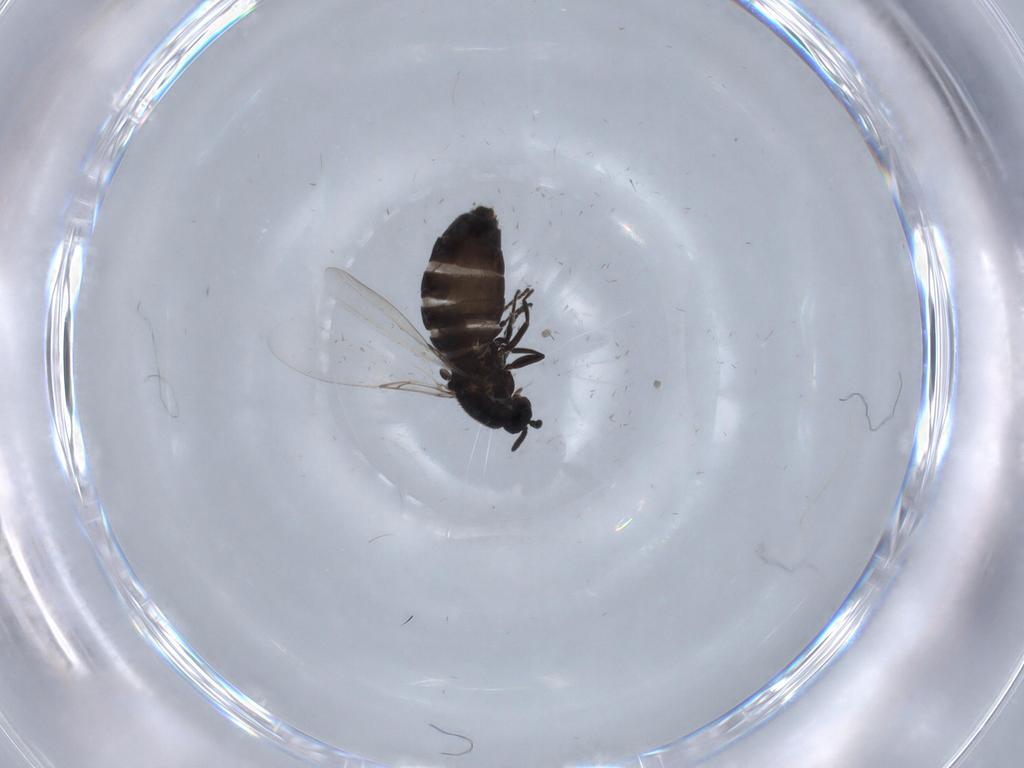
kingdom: Animalia
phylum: Arthropoda
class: Insecta
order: Diptera
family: Scatopsidae
